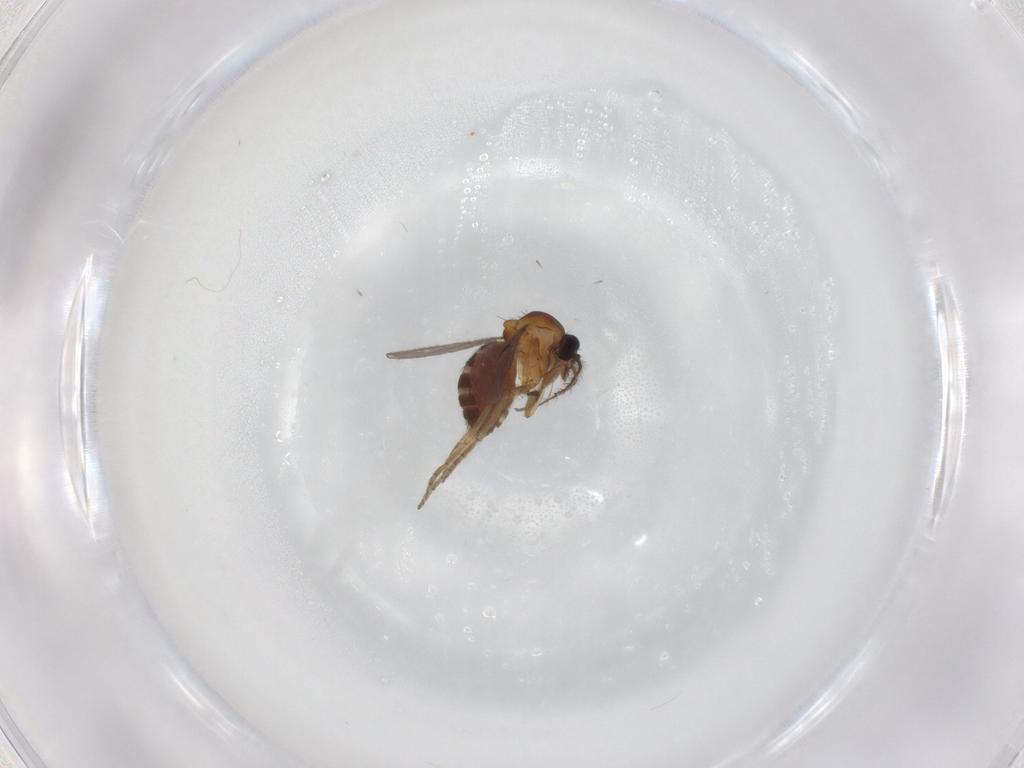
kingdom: Animalia
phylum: Arthropoda
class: Insecta
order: Diptera
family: Ceratopogonidae
